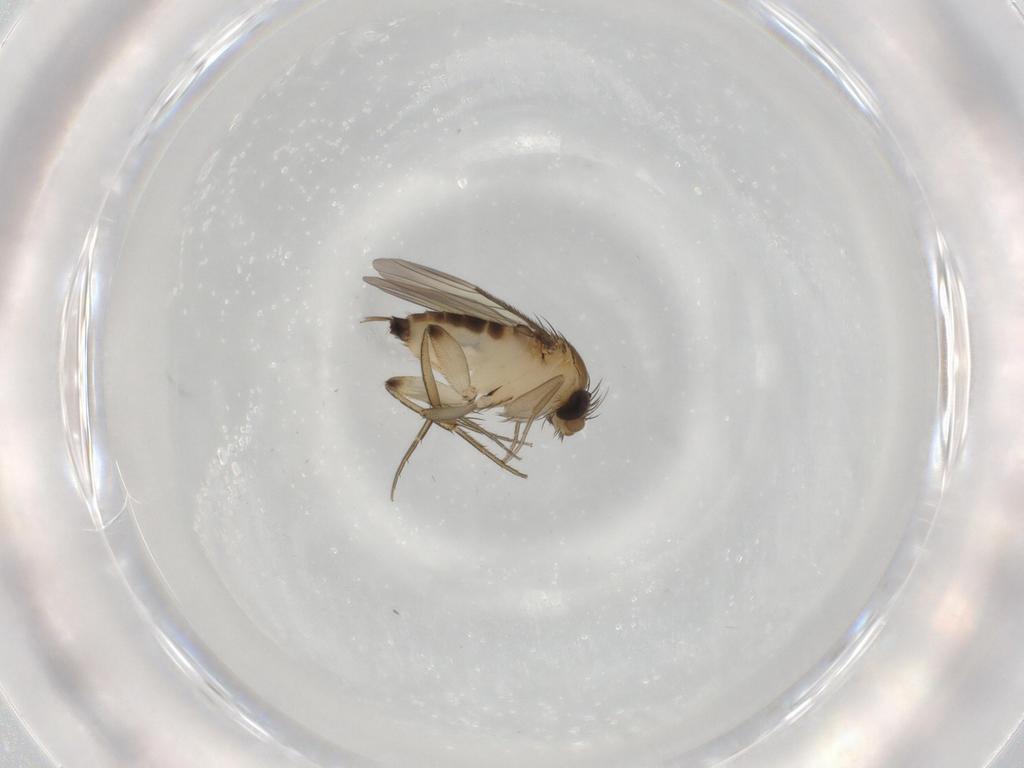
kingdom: Animalia
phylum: Arthropoda
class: Insecta
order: Diptera
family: Phoridae
